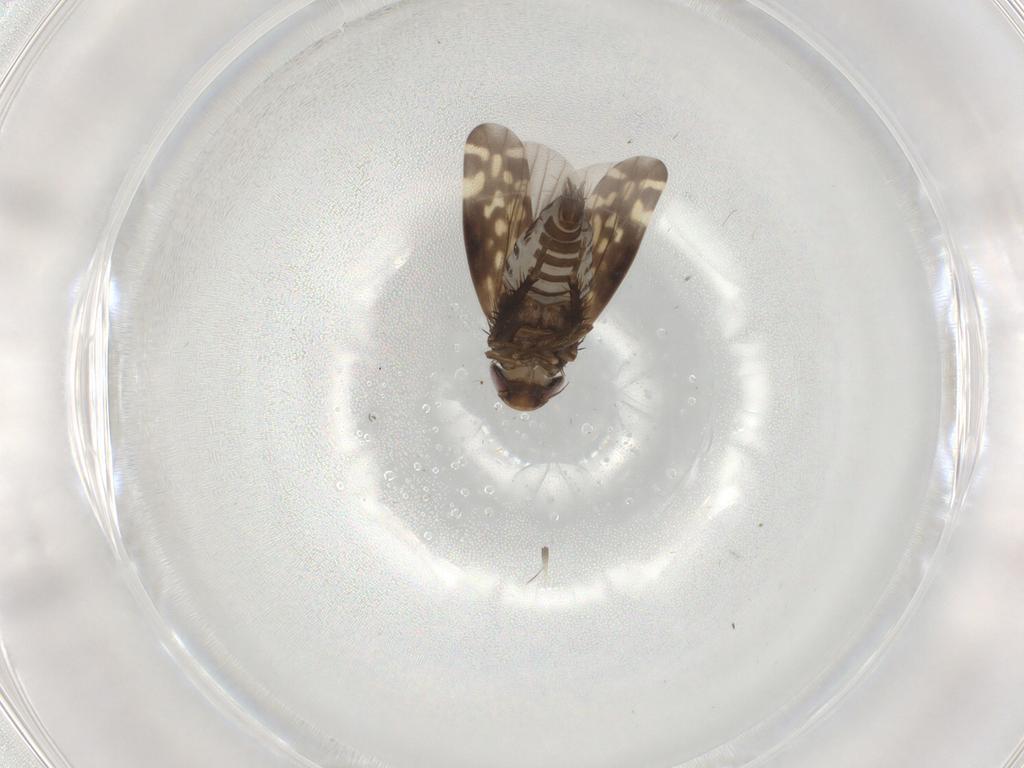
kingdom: Animalia
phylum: Arthropoda
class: Insecta
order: Hemiptera
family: Cicadellidae
